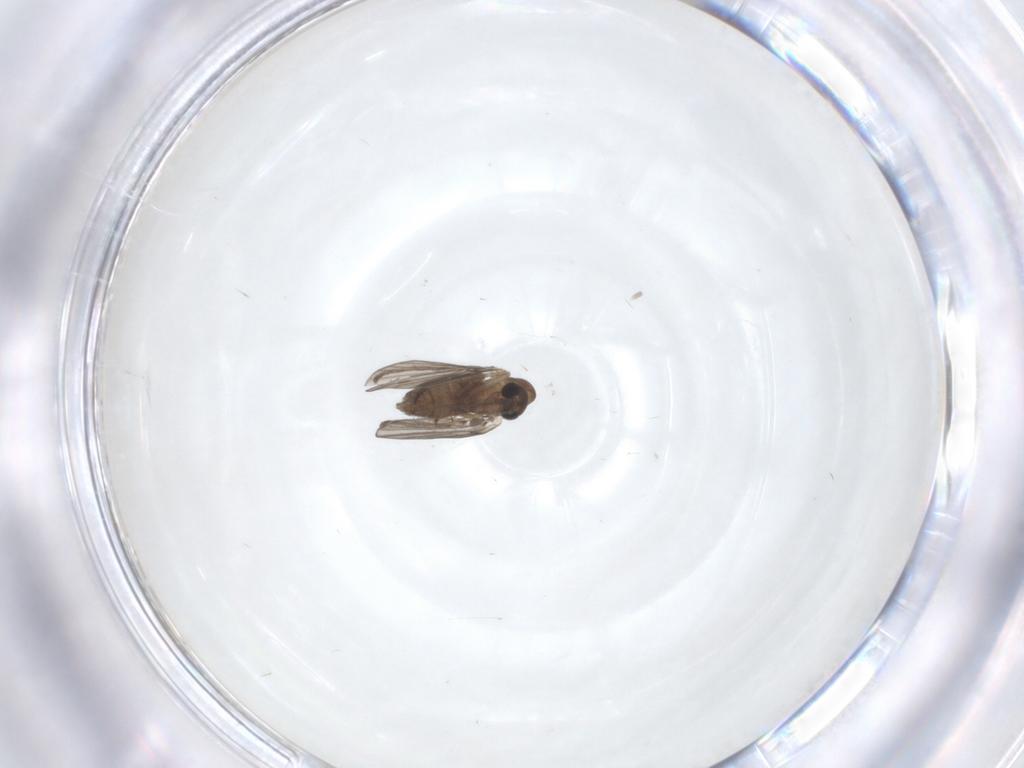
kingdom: Animalia
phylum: Arthropoda
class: Insecta
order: Diptera
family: Psychodidae
